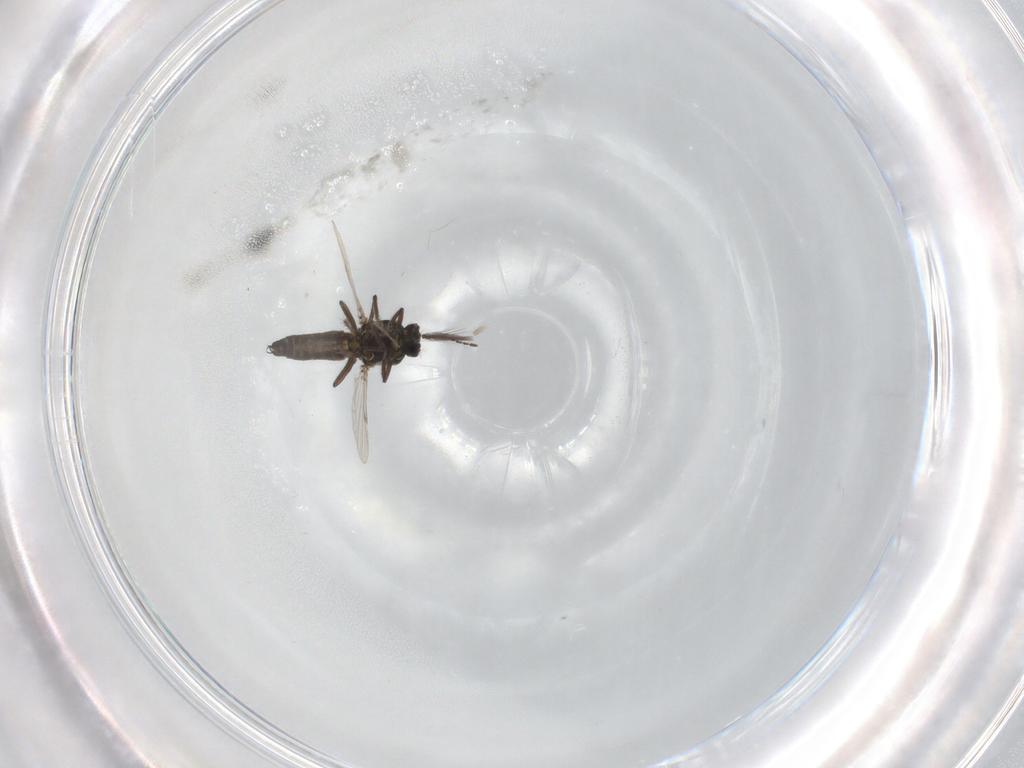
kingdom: Animalia
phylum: Arthropoda
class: Insecta
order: Diptera
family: Ceratopogonidae
